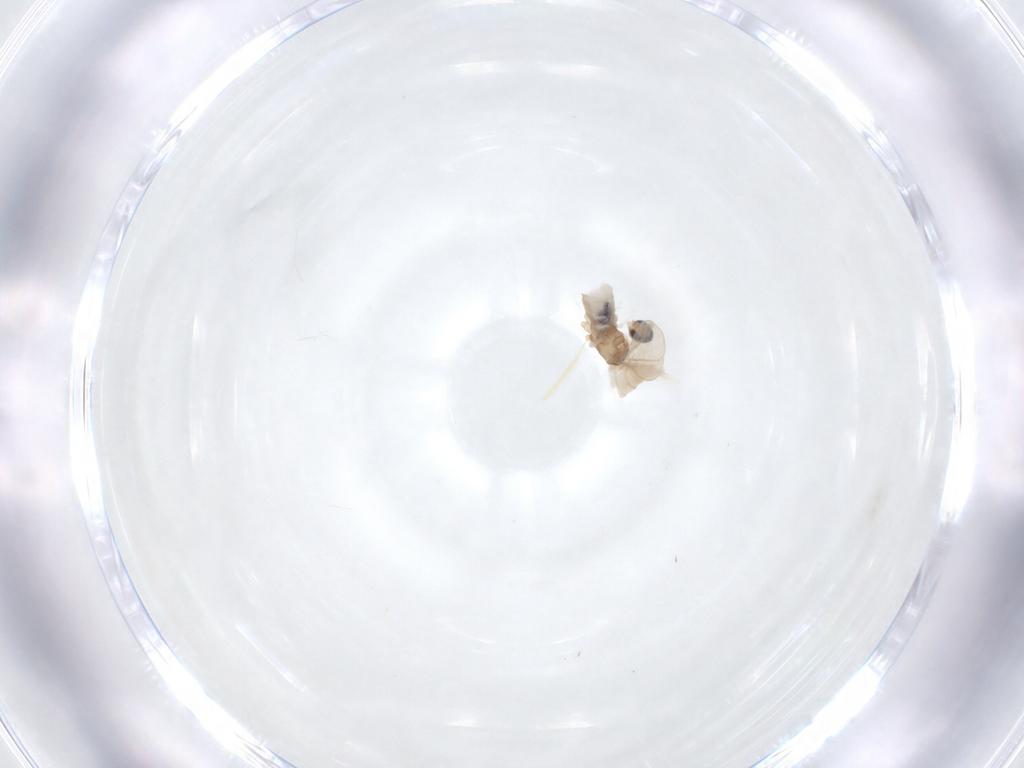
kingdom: Animalia
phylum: Arthropoda
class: Insecta
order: Diptera
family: Cecidomyiidae
